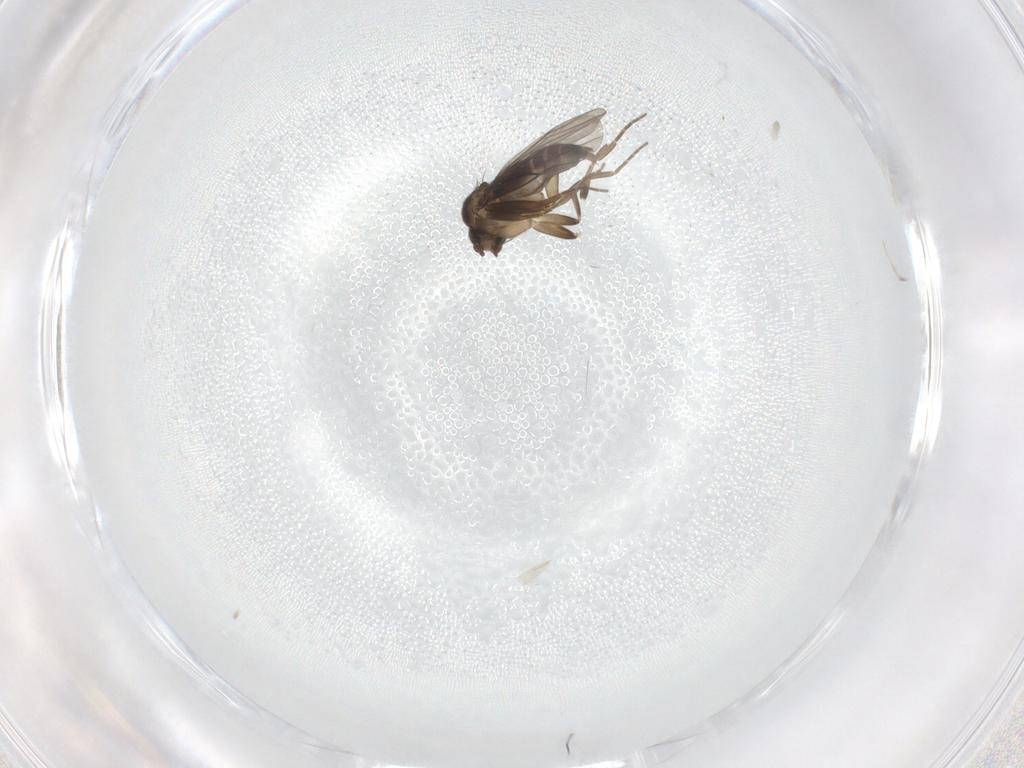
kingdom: Animalia
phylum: Arthropoda
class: Insecta
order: Diptera
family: Phoridae
